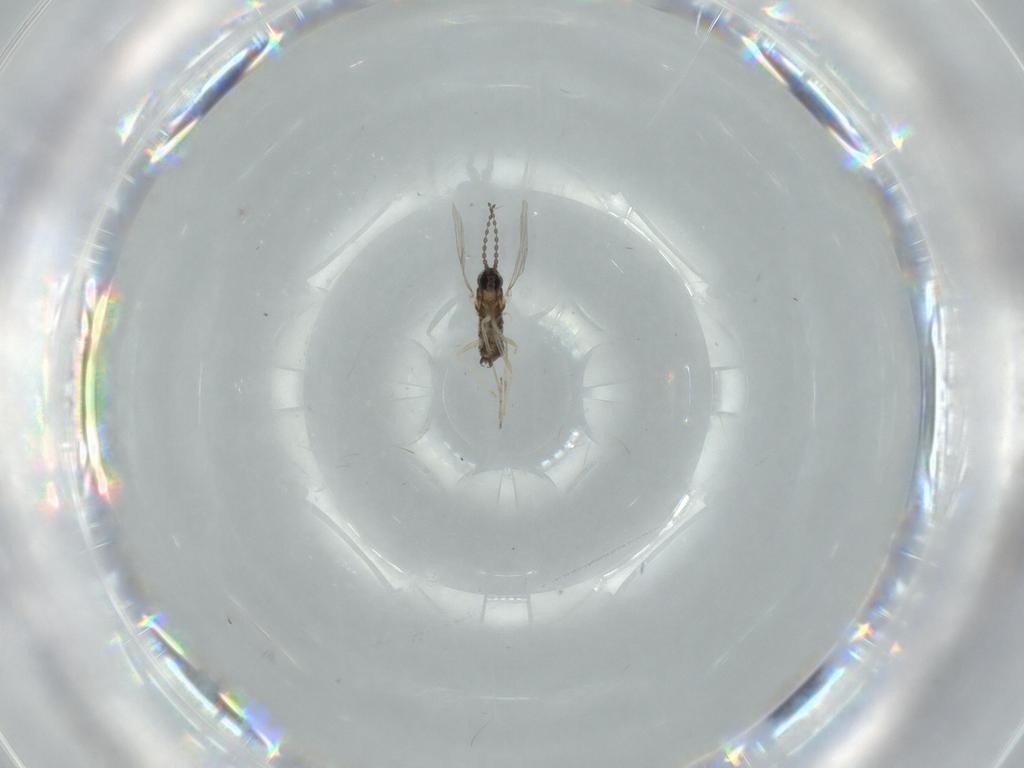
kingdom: Animalia
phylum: Arthropoda
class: Insecta
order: Diptera
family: Cecidomyiidae
